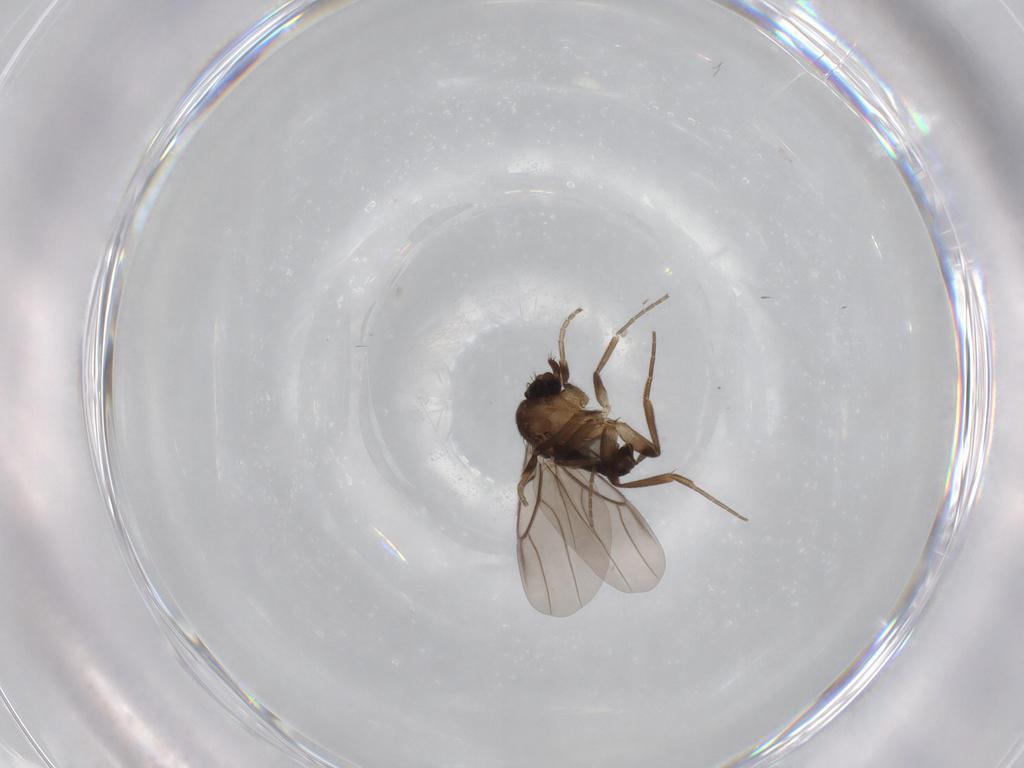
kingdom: Animalia
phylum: Arthropoda
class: Insecta
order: Diptera
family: Phoridae
